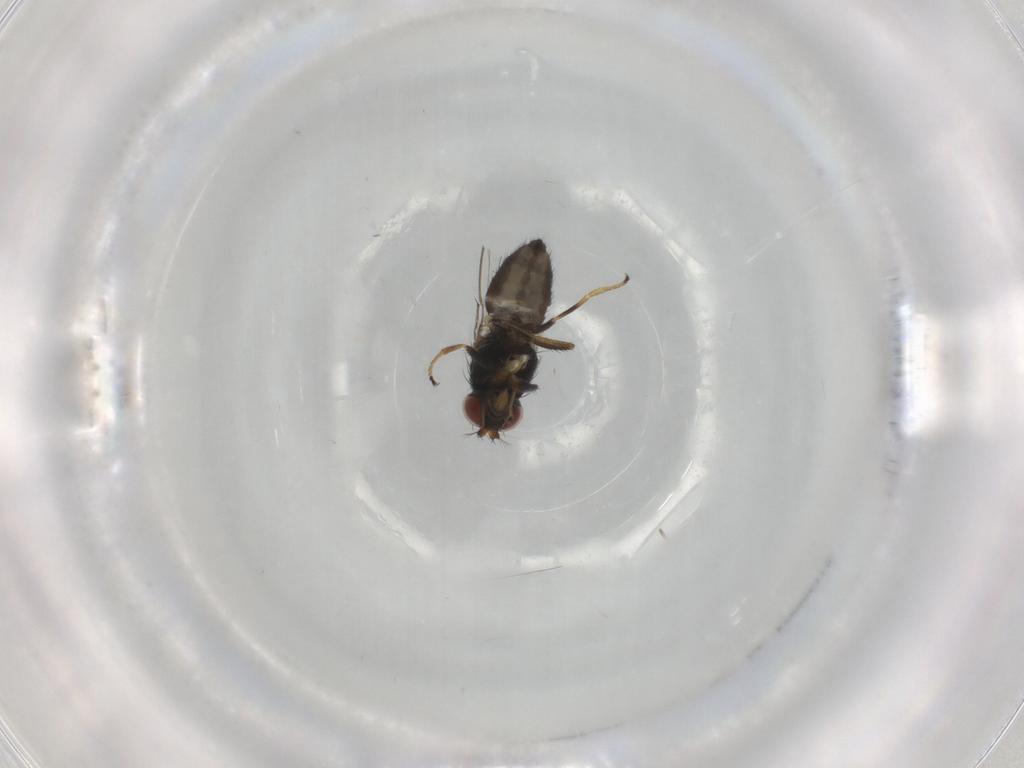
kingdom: Animalia
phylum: Arthropoda
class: Insecta
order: Diptera
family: Ephydridae
